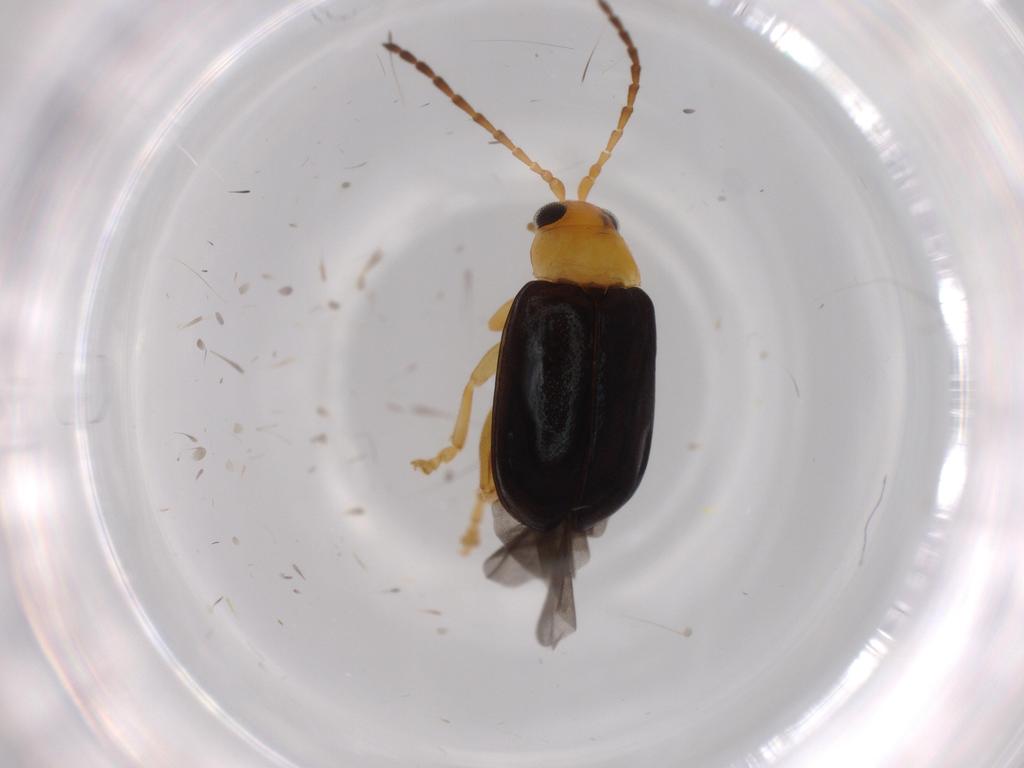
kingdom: Animalia
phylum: Arthropoda
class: Insecta
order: Coleoptera
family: Chrysomelidae
